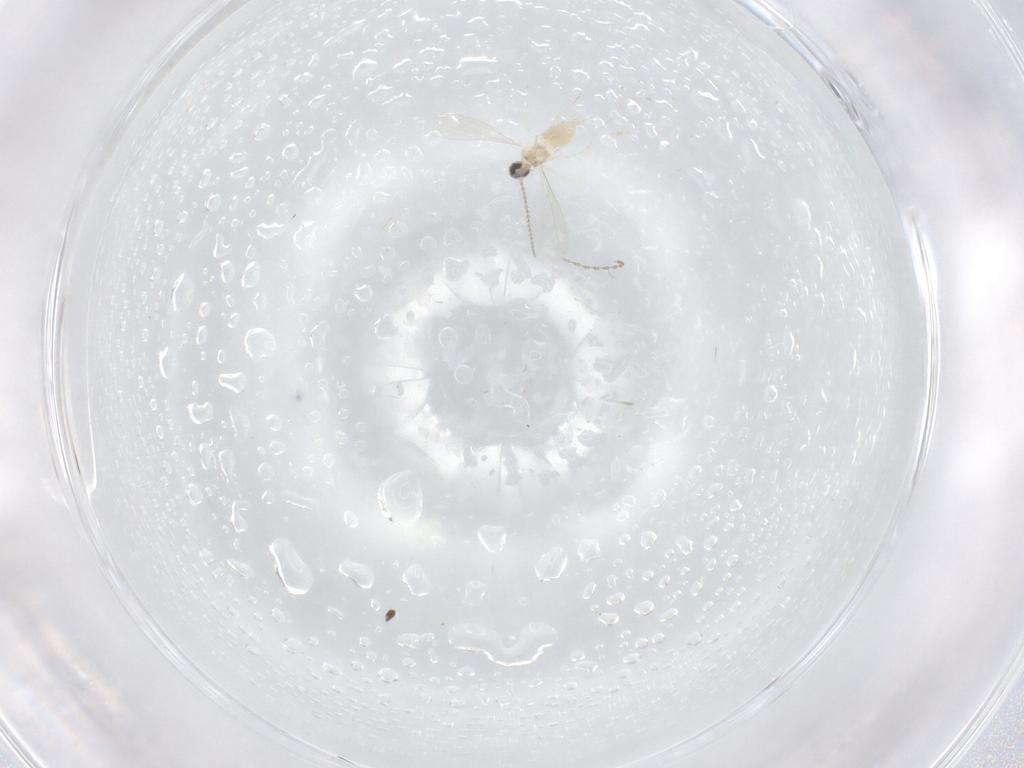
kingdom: Animalia
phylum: Arthropoda
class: Insecta
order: Diptera
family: Cecidomyiidae
